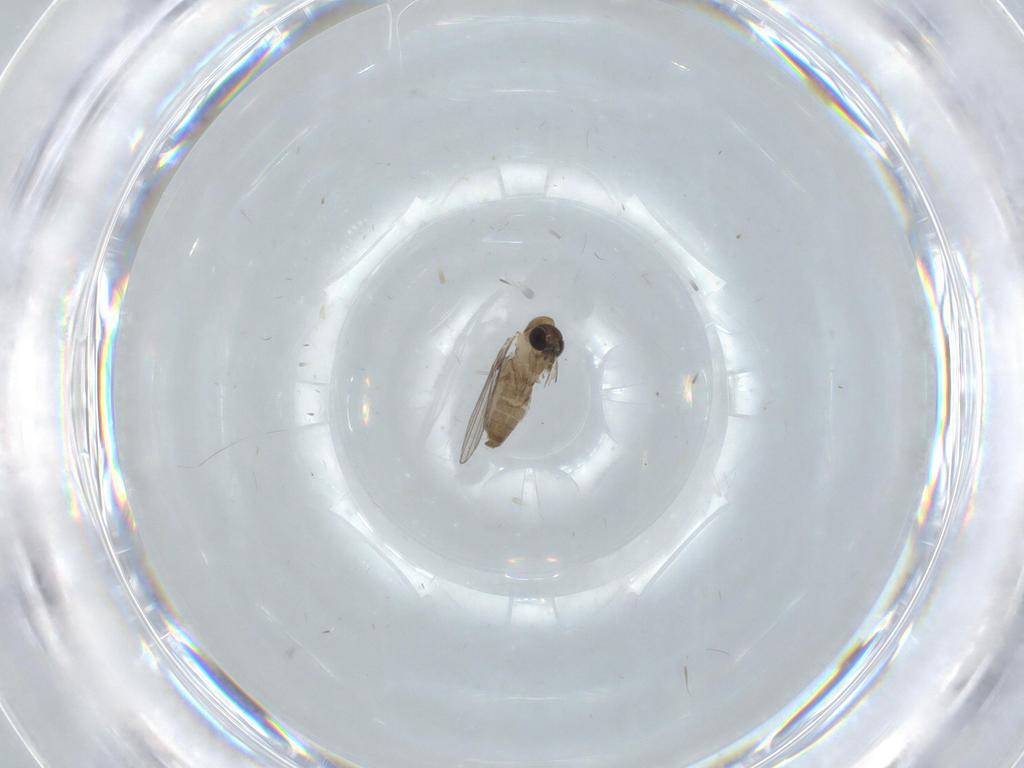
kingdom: Animalia
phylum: Arthropoda
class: Insecta
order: Diptera
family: Psychodidae
